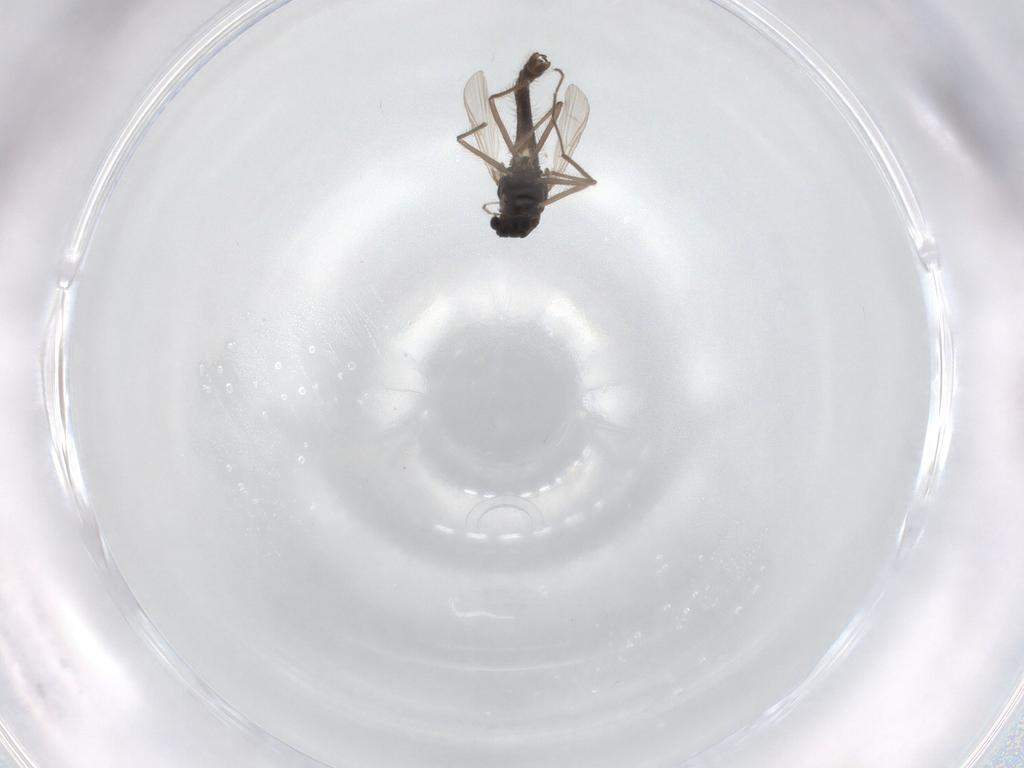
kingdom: Animalia
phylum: Arthropoda
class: Insecta
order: Diptera
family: Chironomidae
